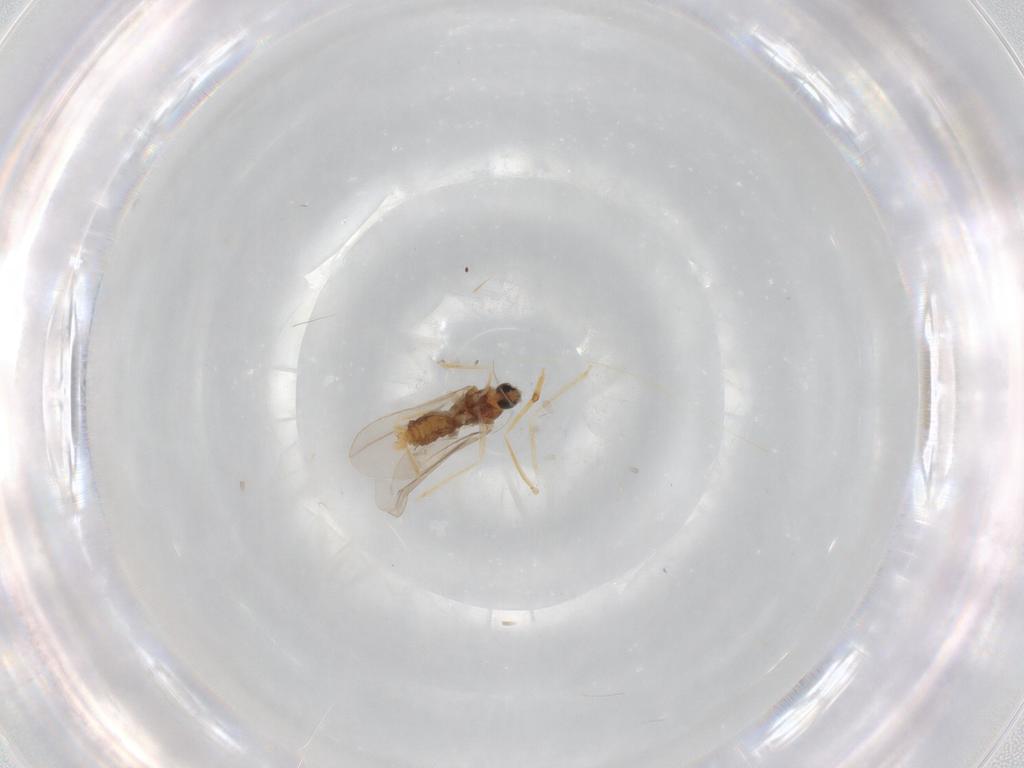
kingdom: Animalia
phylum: Arthropoda
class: Insecta
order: Diptera
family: Cecidomyiidae
